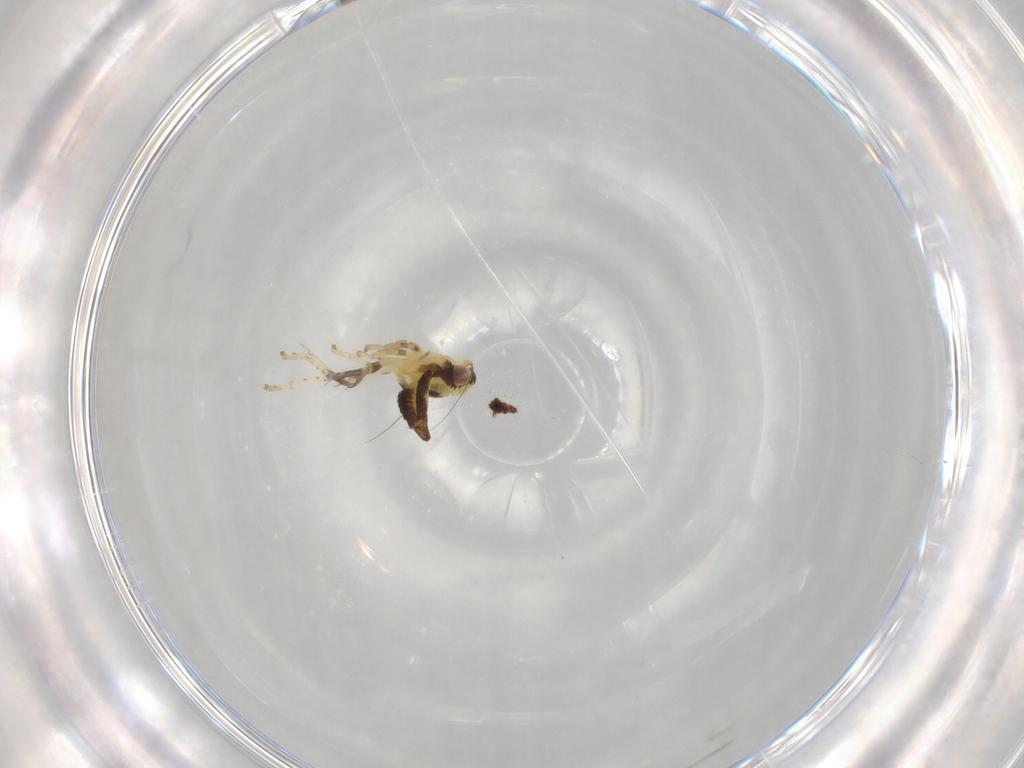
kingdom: Animalia
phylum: Arthropoda
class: Insecta
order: Hemiptera
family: Cicadellidae
